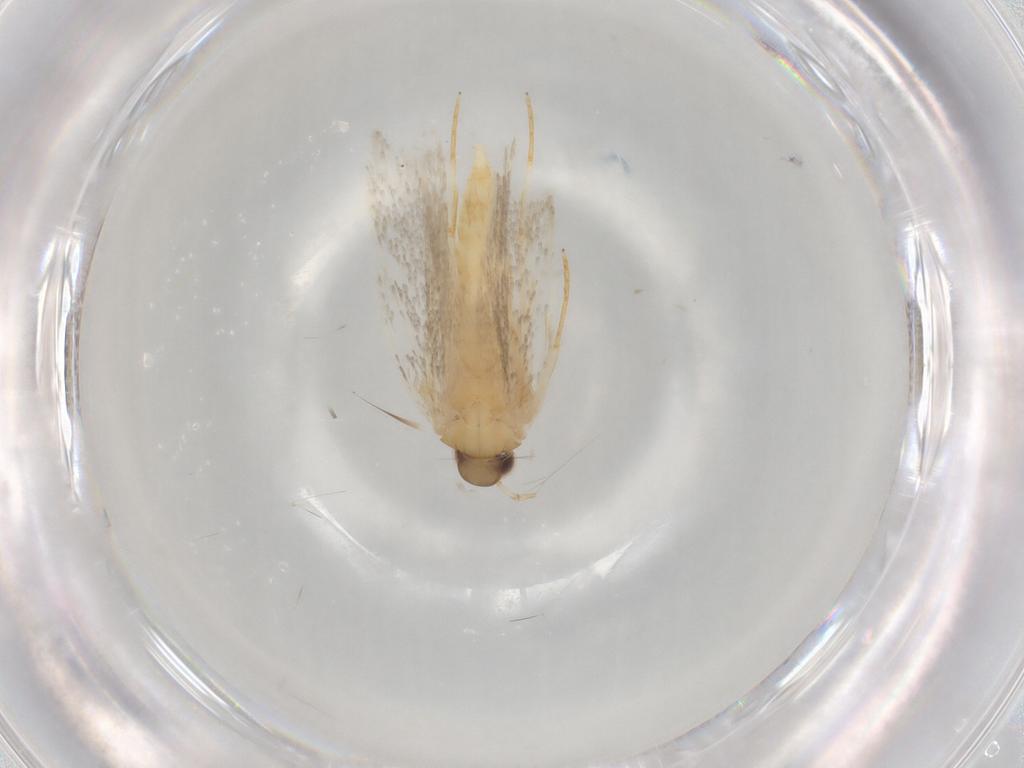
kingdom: Animalia
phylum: Arthropoda
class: Insecta
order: Lepidoptera
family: Autostichidae
